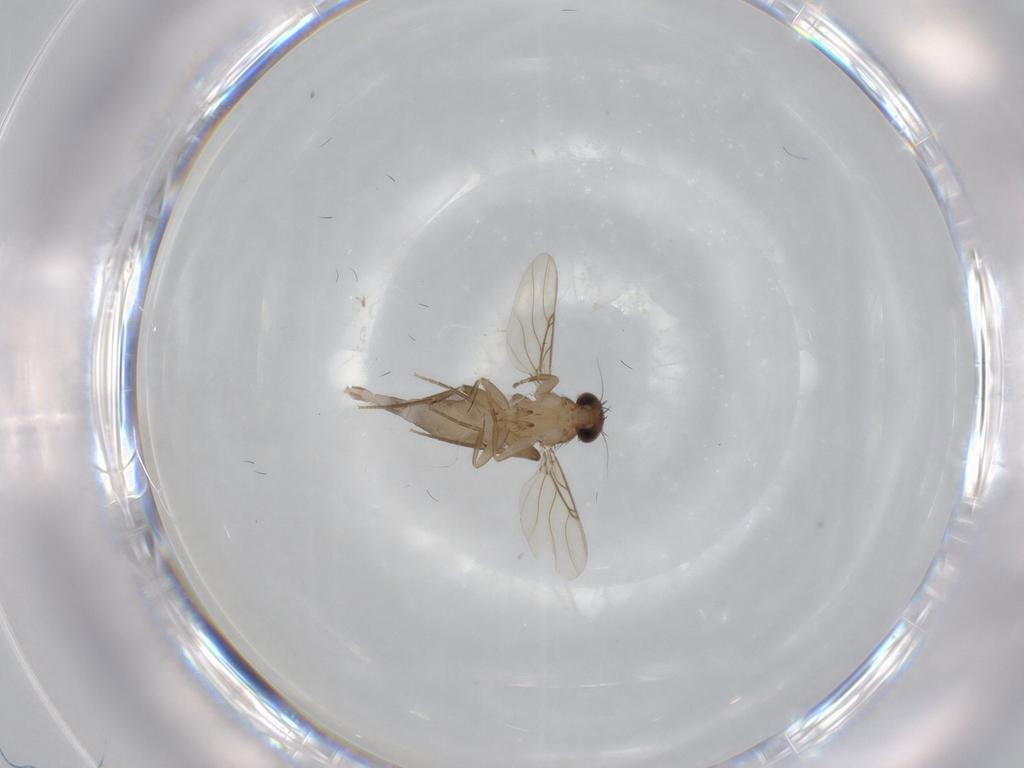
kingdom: Animalia
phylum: Arthropoda
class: Insecta
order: Diptera
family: Phoridae
